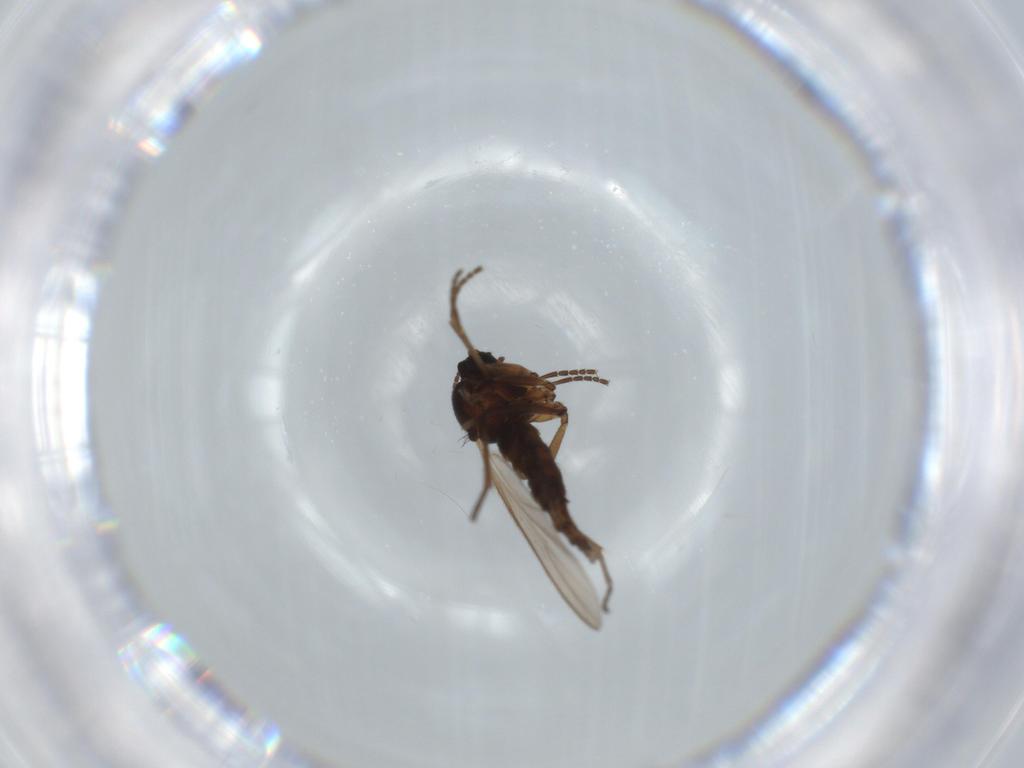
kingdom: Animalia
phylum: Arthropoda
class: Insecta
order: Diptera
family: Sciaridae
